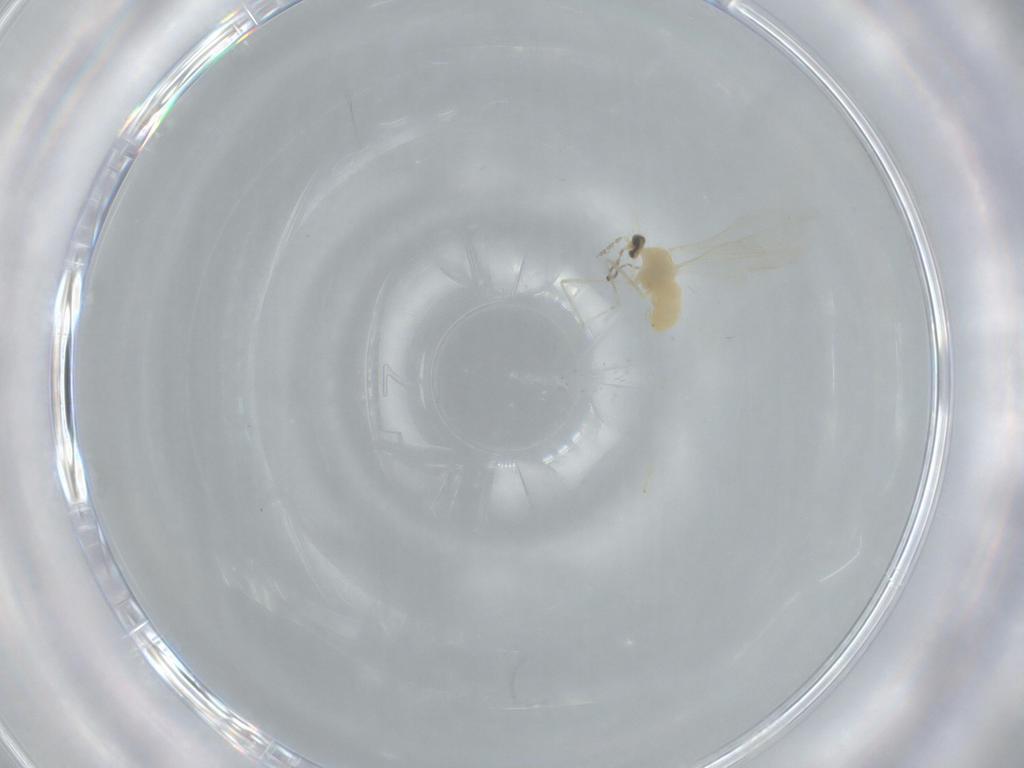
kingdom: Animalia
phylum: Arthropoda
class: Insecta
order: Diptera
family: Cecidomyiidae
